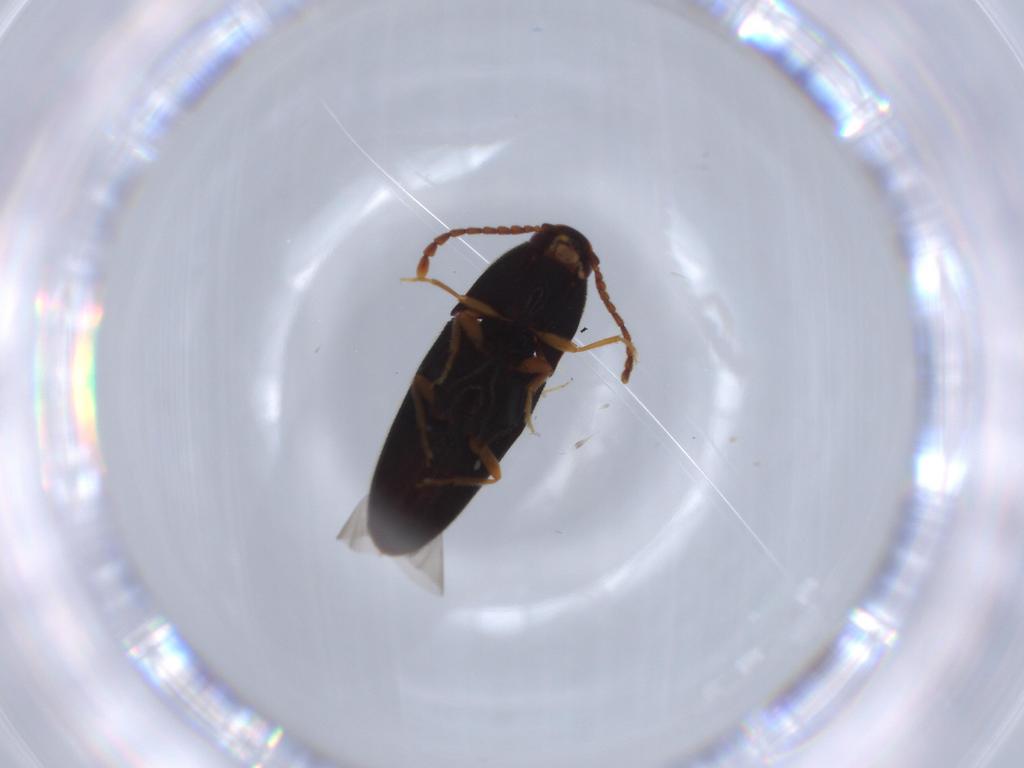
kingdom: Animalia
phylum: Arthropoda
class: Insecta
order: Coleoptera
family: Elateridae
